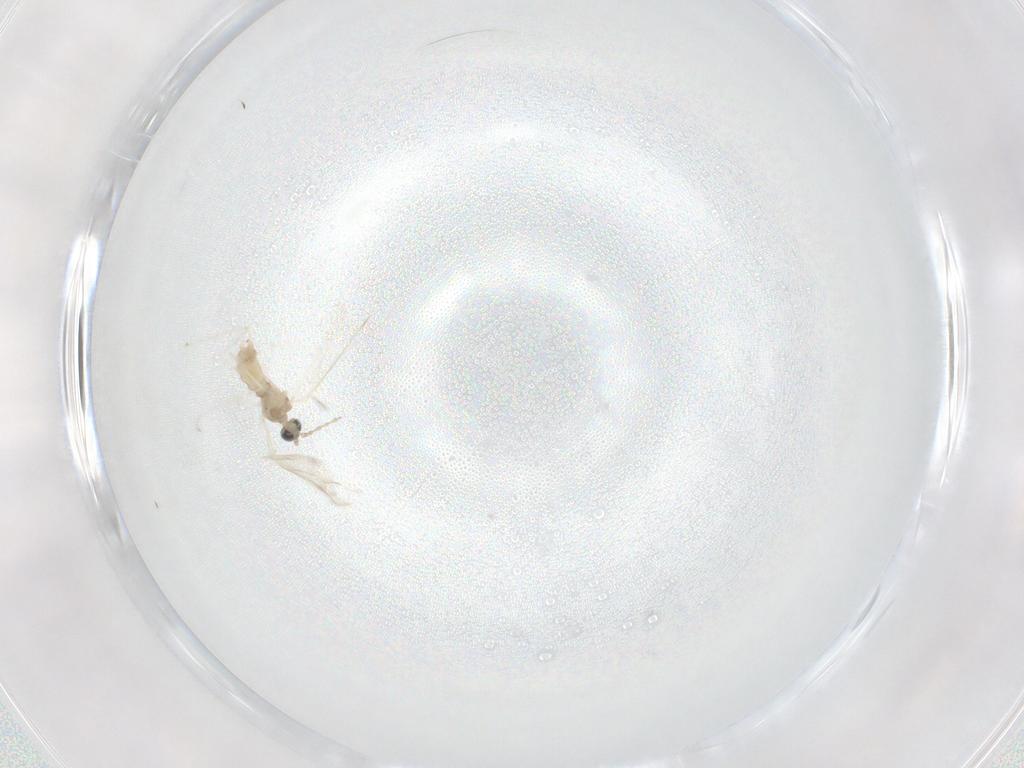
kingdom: Animalia
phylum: Arthropoda
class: Insecta
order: Diptera
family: Cecidomyiidae
